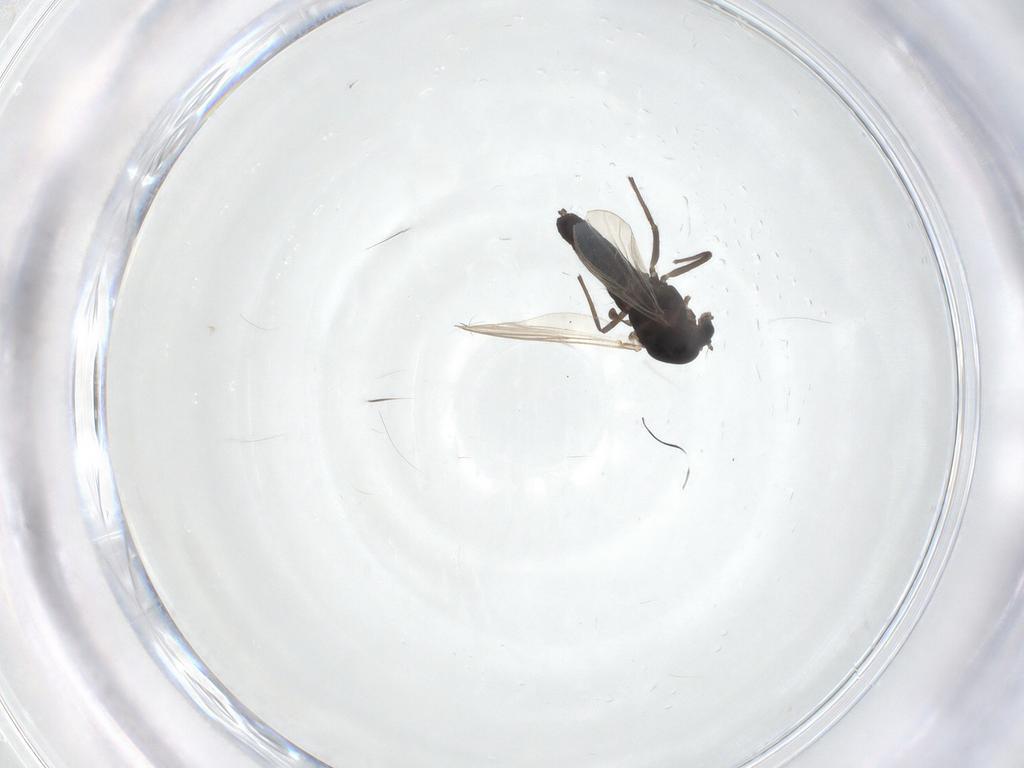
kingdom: Animalia
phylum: Arthropoda
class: Insecta
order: Diptera
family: Chironomidae
